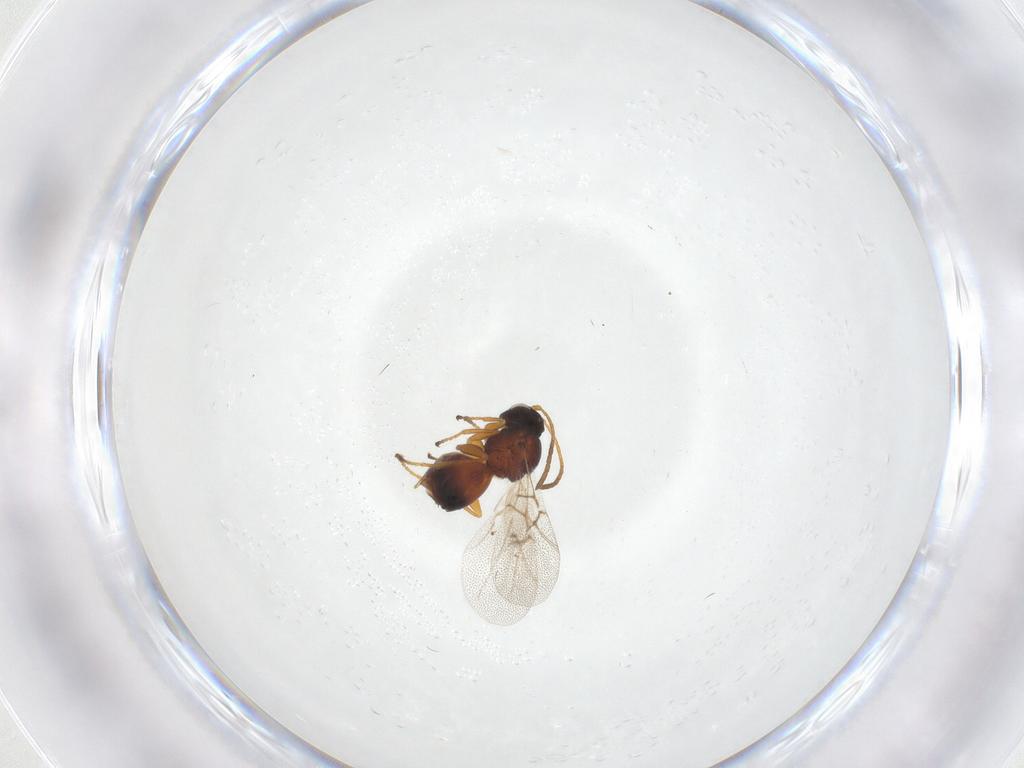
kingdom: Animalia
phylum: Arthropoda
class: Insecta
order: Hymenoptera
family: Cynipidae
